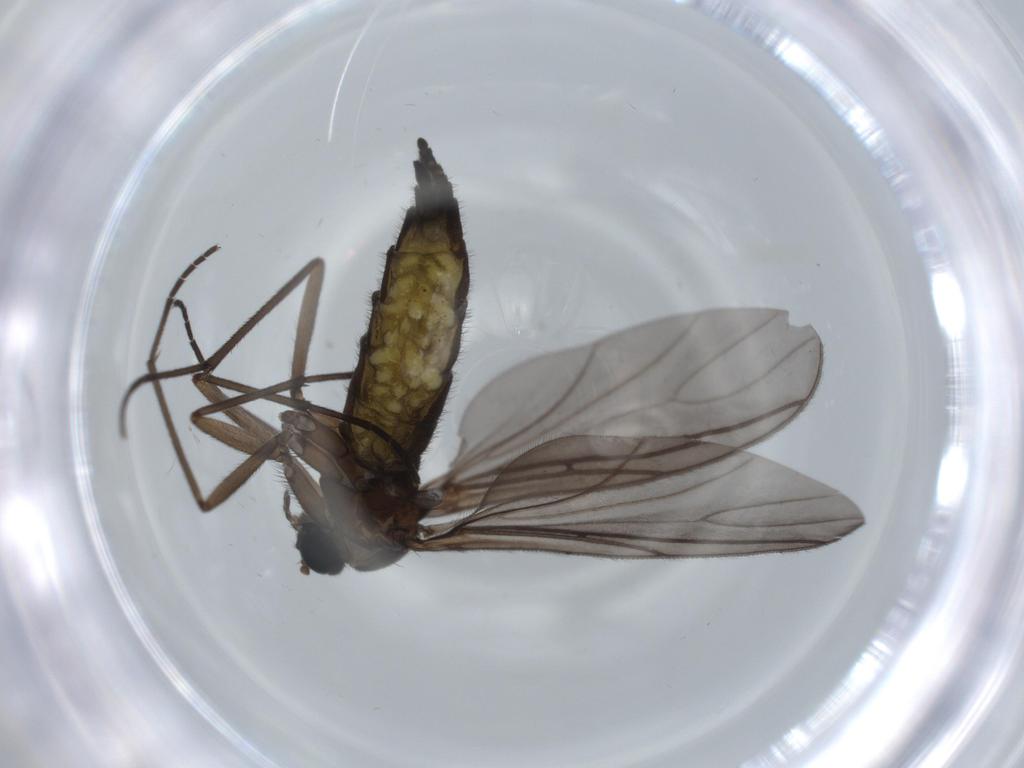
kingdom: Animalia
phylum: Arthropoda
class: Insecta
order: Diptera
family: Sciaridae
